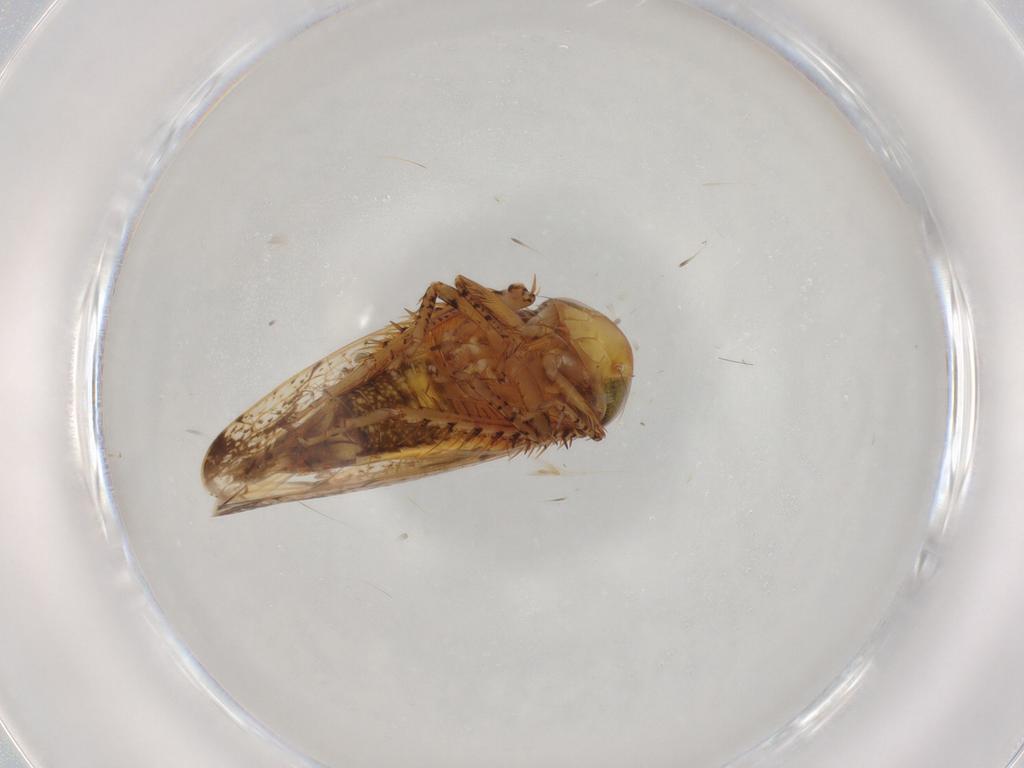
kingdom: Animalia
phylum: Arthropoda
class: Insecta
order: Hemiptera
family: Cicadellidae
